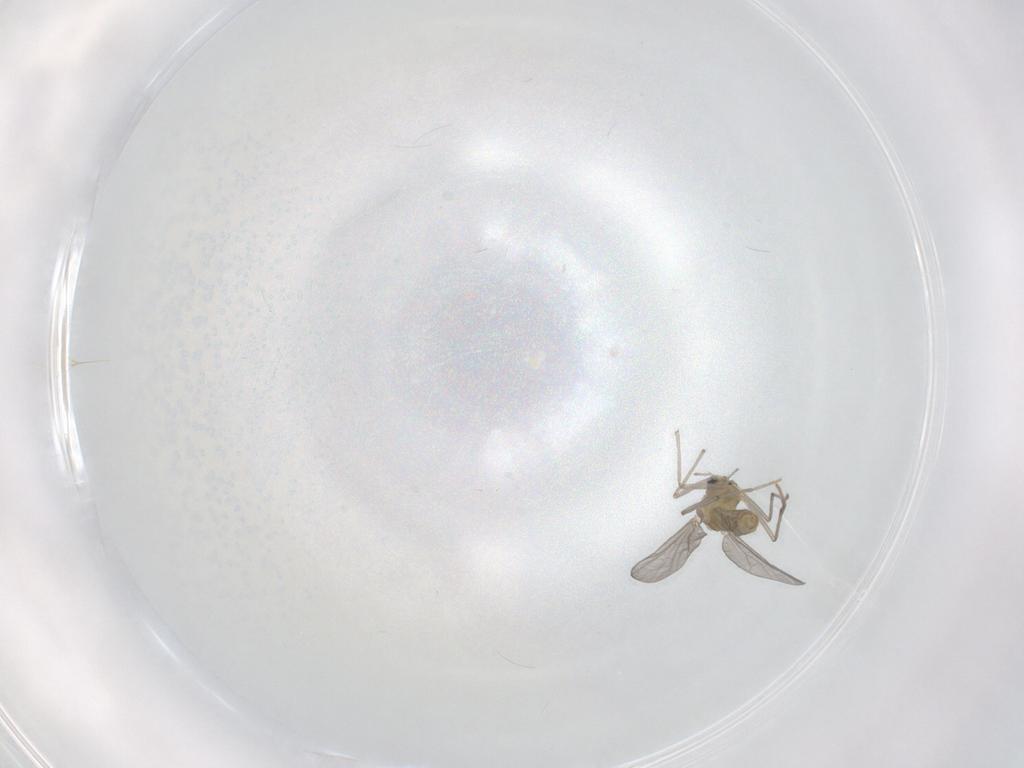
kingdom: Animalia
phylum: Arthropoda
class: Insecta
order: Diptera
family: Chironomidae
